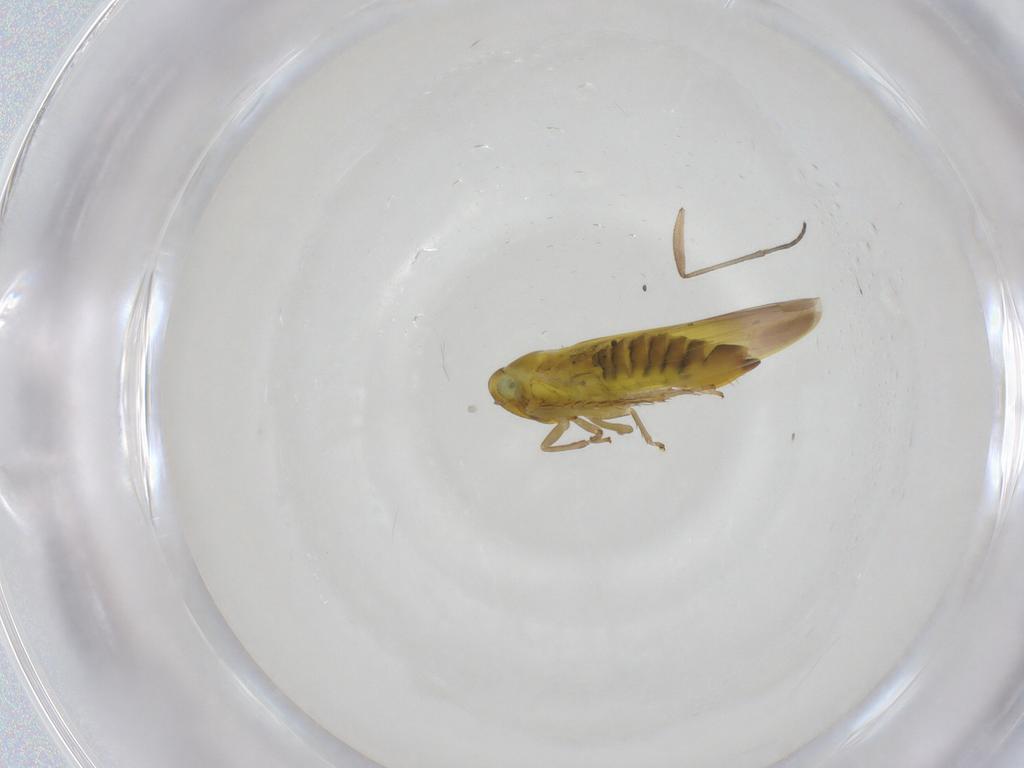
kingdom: Animalia
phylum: Arthropoda
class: Insecta
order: Hemiptera
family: Cicadellidae
